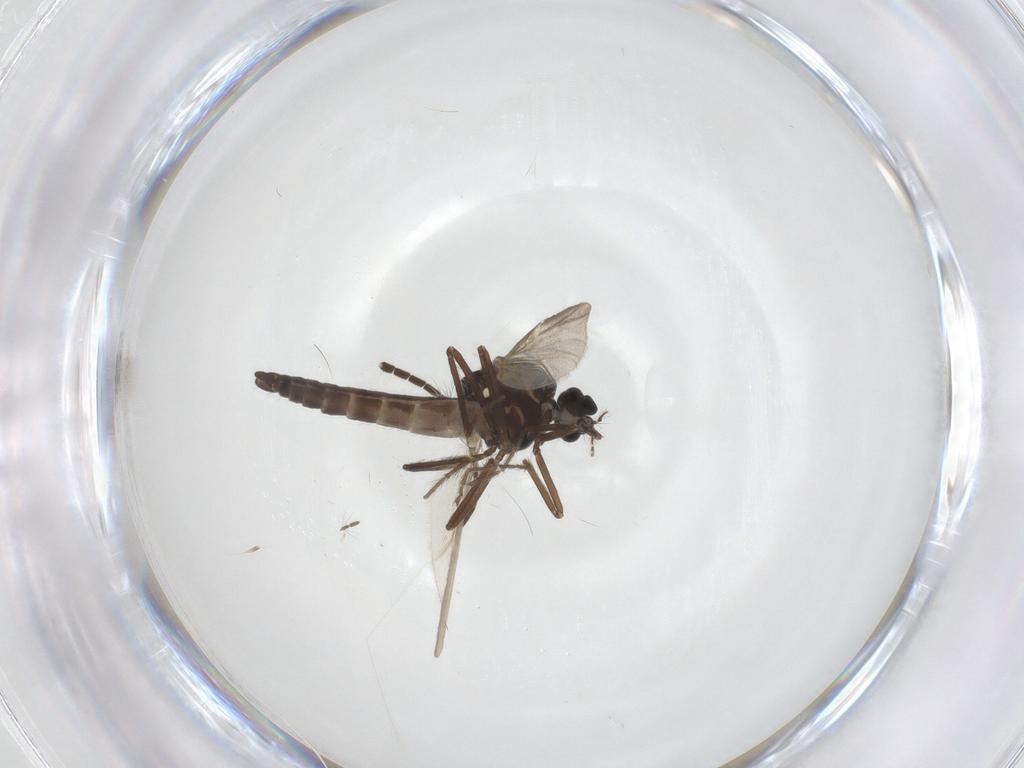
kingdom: Animalia
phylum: Arthropoda
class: Insecta
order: Diptera
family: Ceratopogonidae
